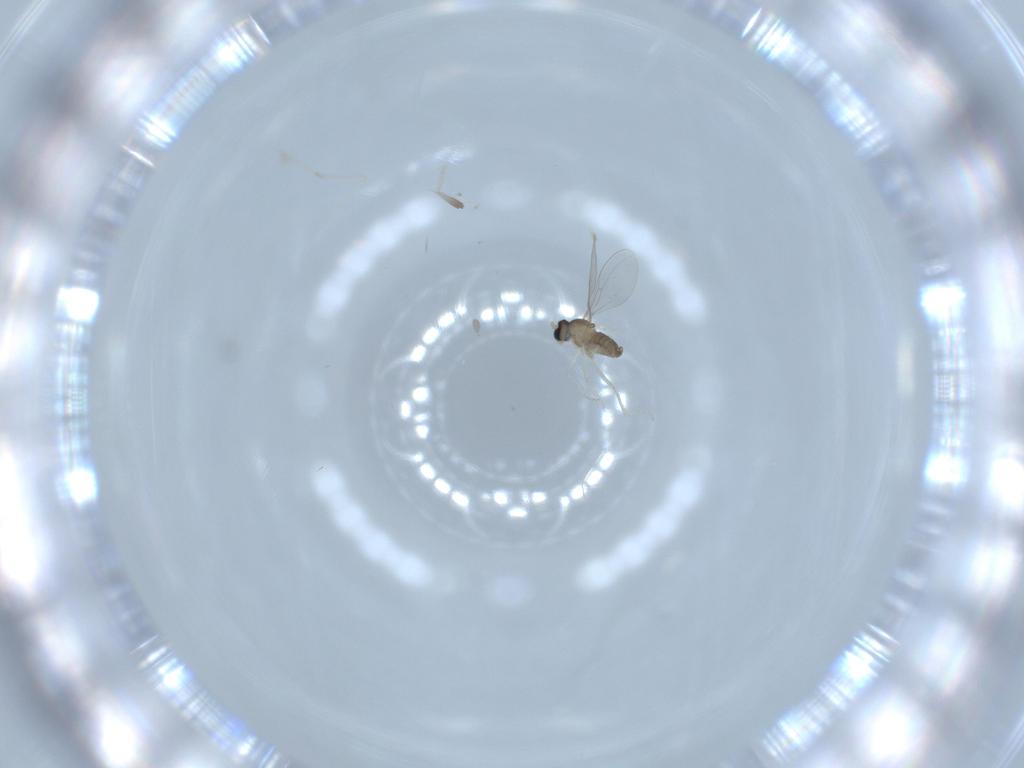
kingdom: Animalia
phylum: Arthropoda
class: Insecta
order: Diptera
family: Cecidomyiidae
